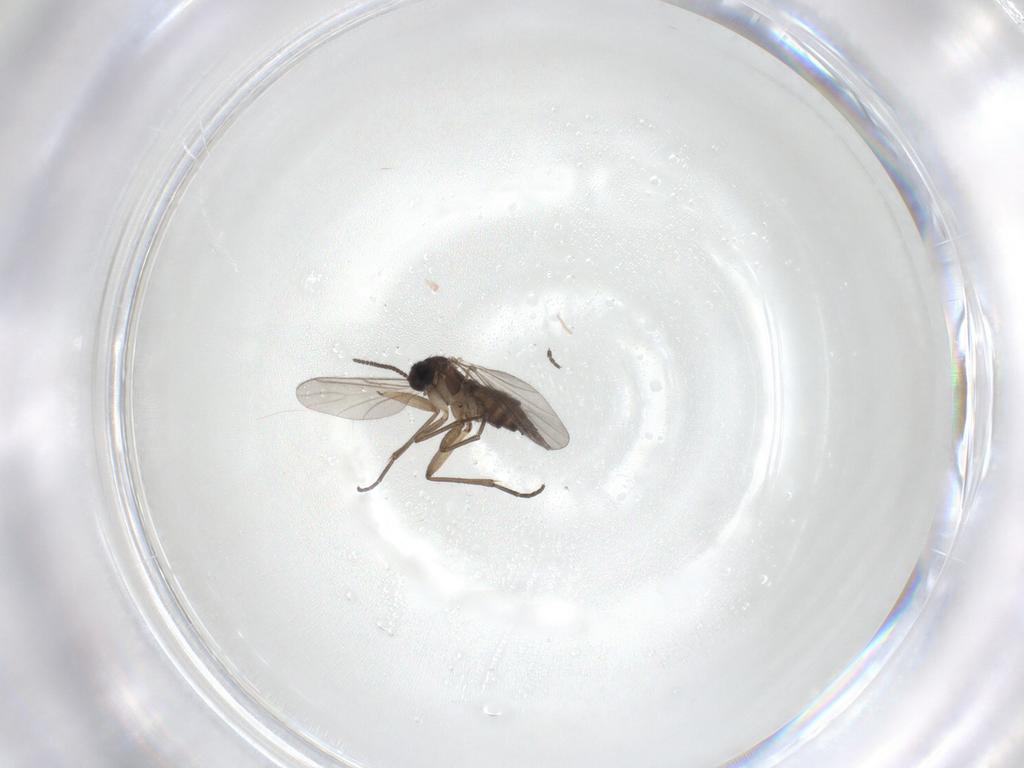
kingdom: Animalia
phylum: Arthropoda
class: Insecta
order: Diptera
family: Sciaridae
